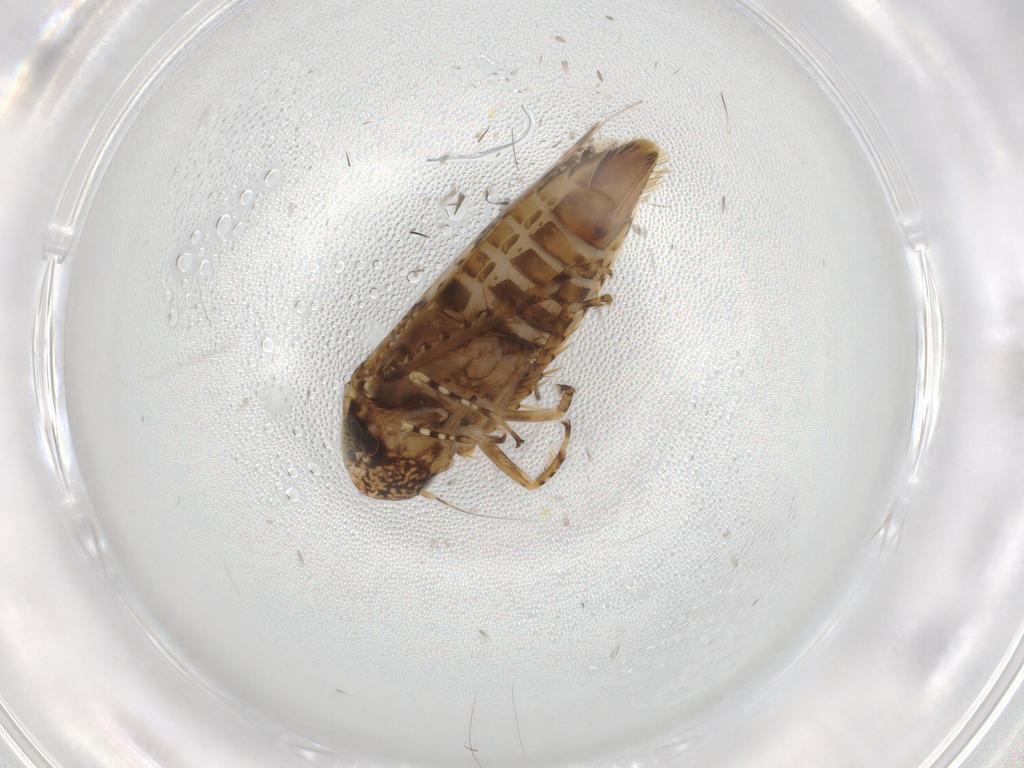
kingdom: Animalia
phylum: Arthropoda
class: Insecta
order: Hemiptera
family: Cicadellidae
